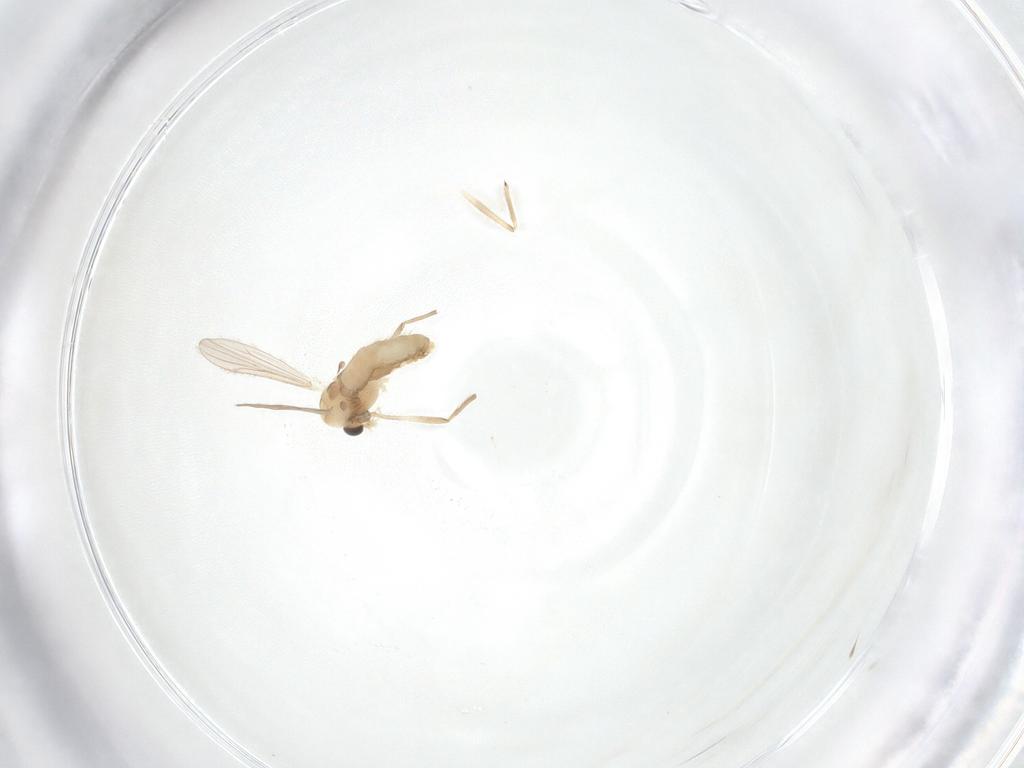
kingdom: Animalia
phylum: Arthropoda
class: Insecta
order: Diptera
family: Chironomidae
